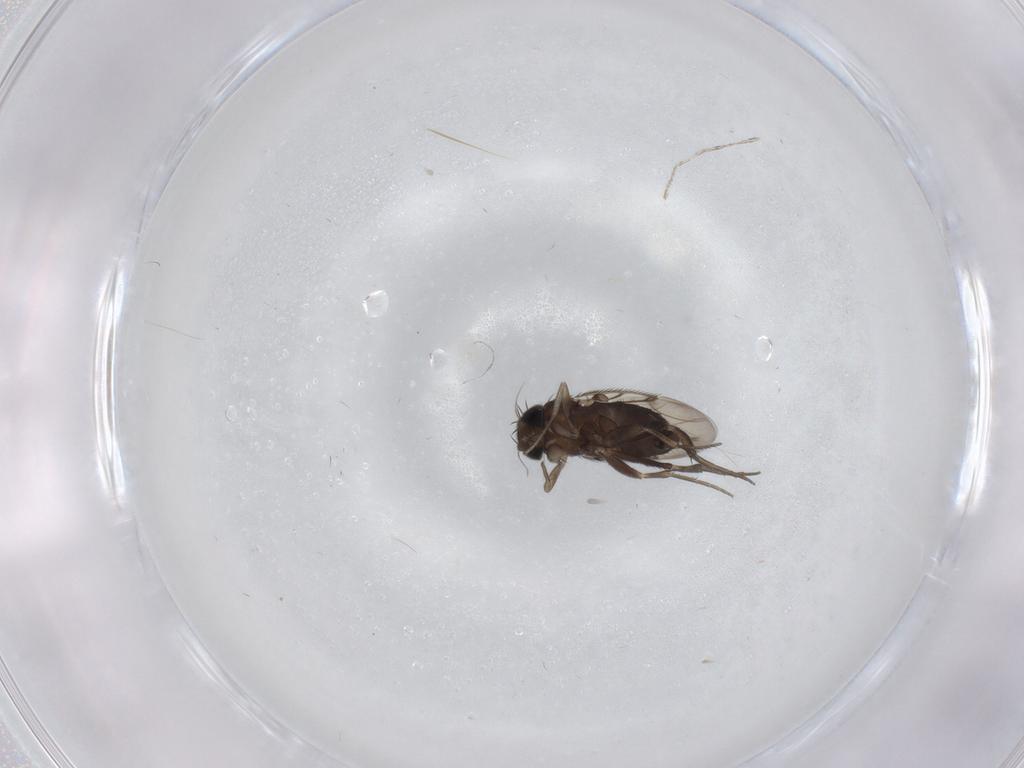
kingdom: Animalia
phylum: Arthropoda
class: Insecta
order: Diptera
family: Phoridae
